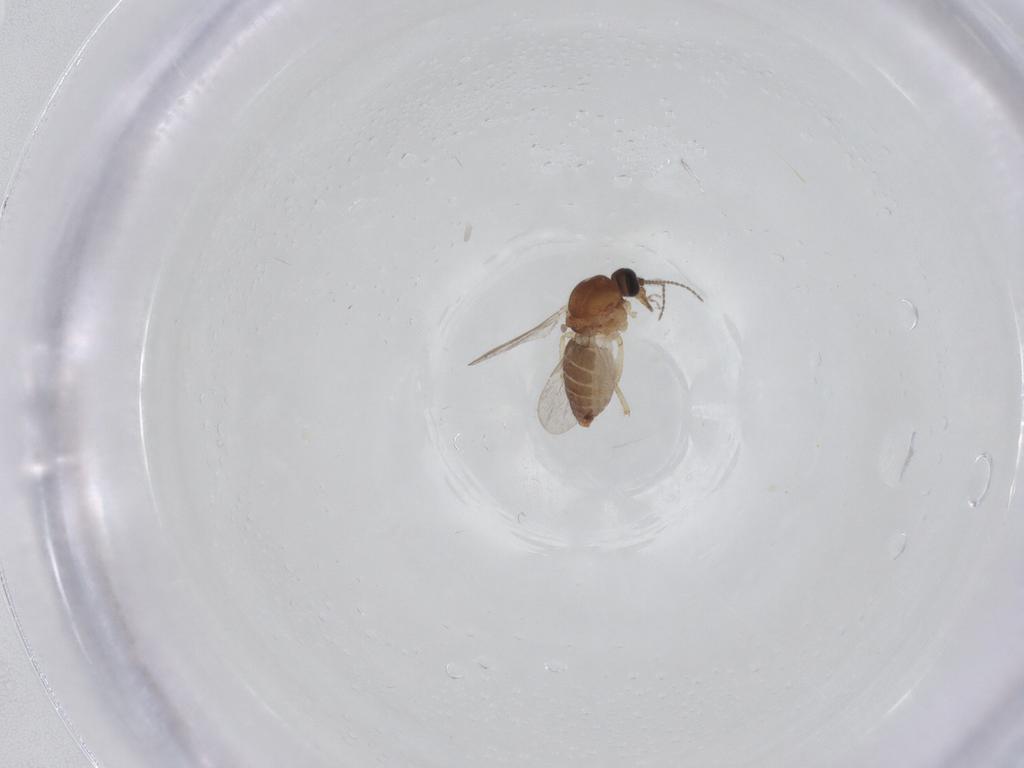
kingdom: Animalia
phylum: Arthropoda
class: Insecta
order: Diptera
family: Ceratopogonidae
